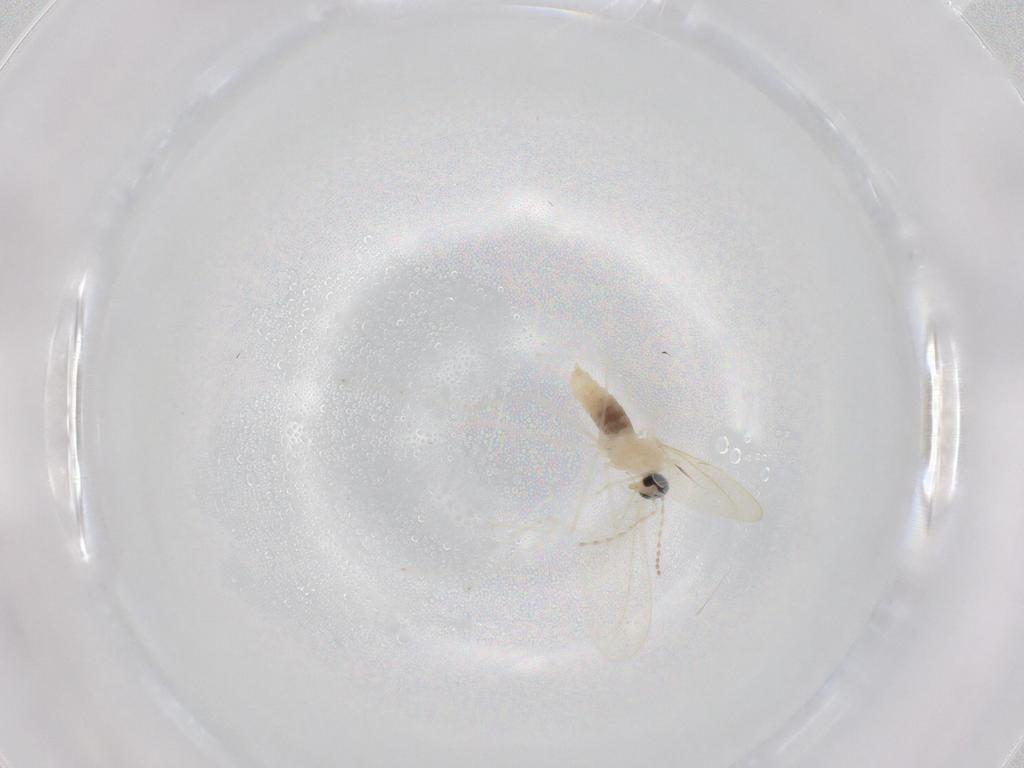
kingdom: Animalia
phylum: Arthropoda
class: Insecta
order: Diptera
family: Cecidomyiidae
